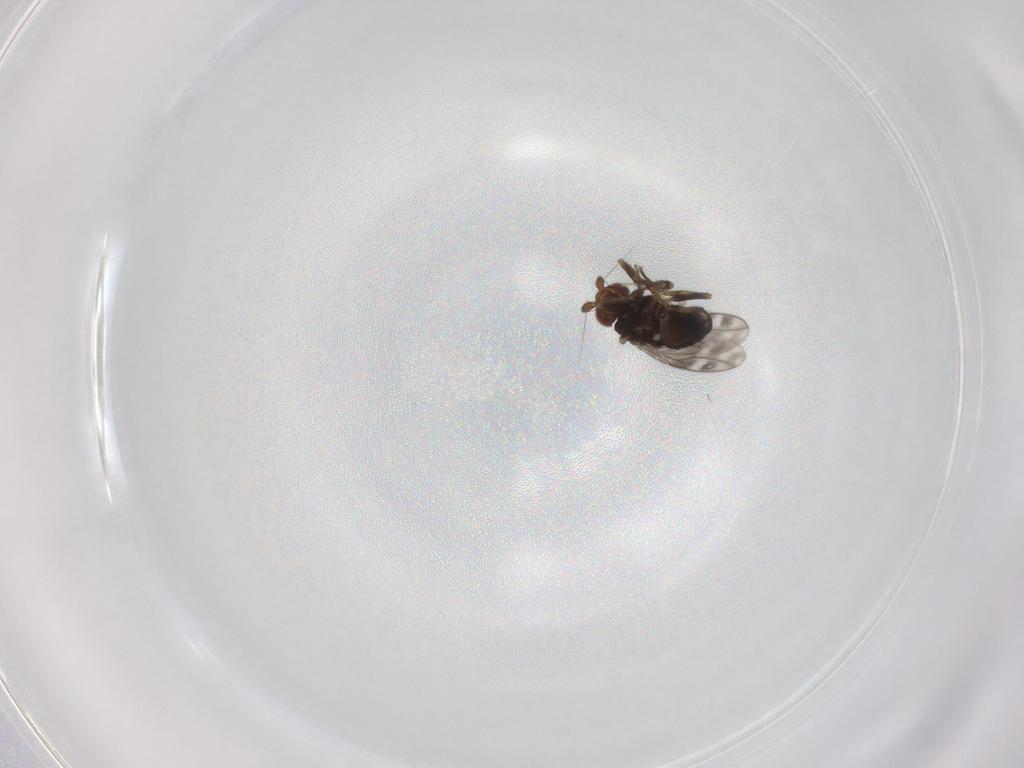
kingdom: Animalia
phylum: Arthropoda
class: Insecta
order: Diptera
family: Sphaeroceridae
